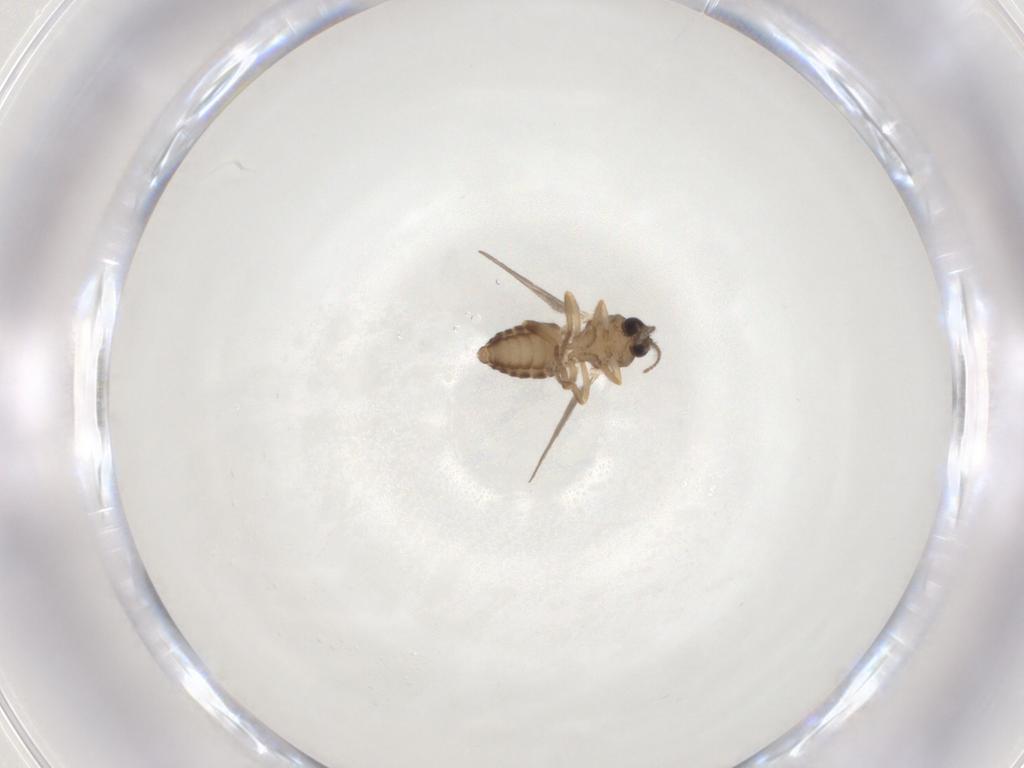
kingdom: Animalia
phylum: Arthropoda
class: Insecta
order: Diptera
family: Ceratopogonidae
